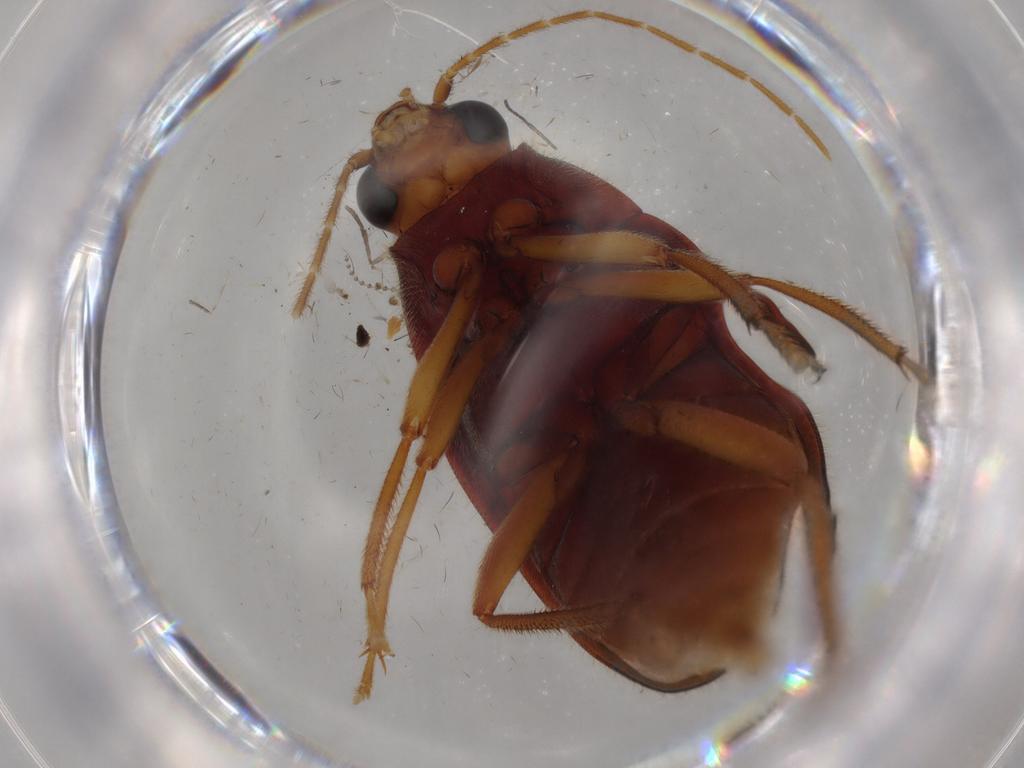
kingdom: Animalia
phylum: Arthropoda
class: Insecta
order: Coleoptera
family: Ptilodactylidae
